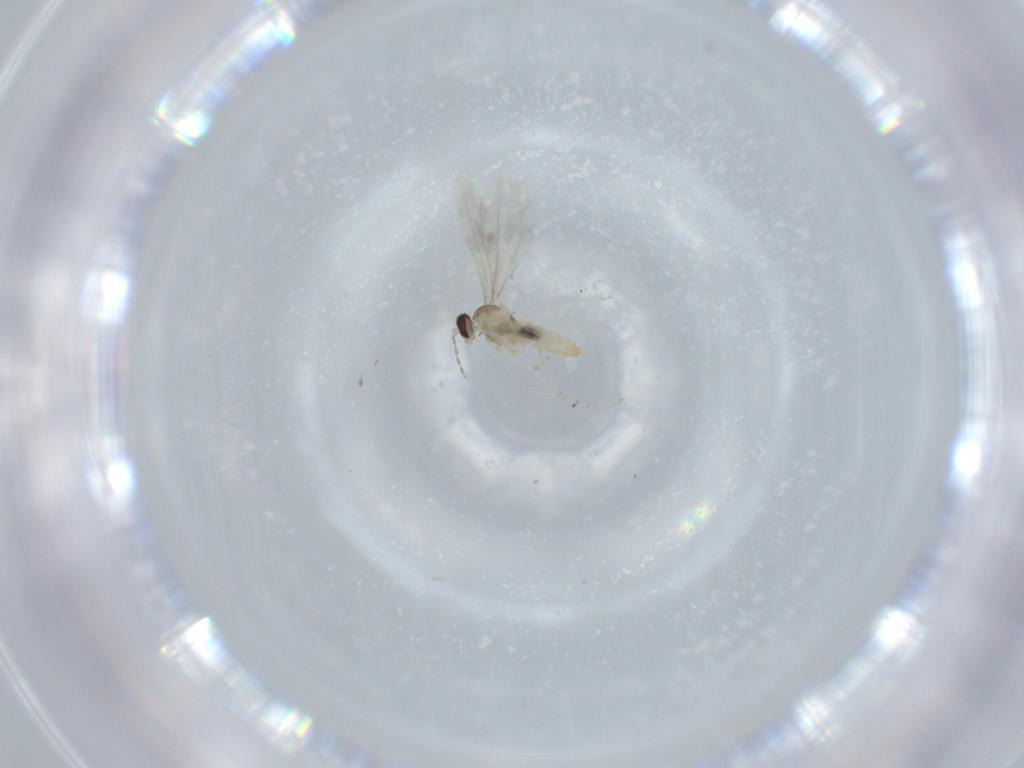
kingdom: Animalia
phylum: Arthropoda
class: Insecta
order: Diptera
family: Cecidomyiidae
